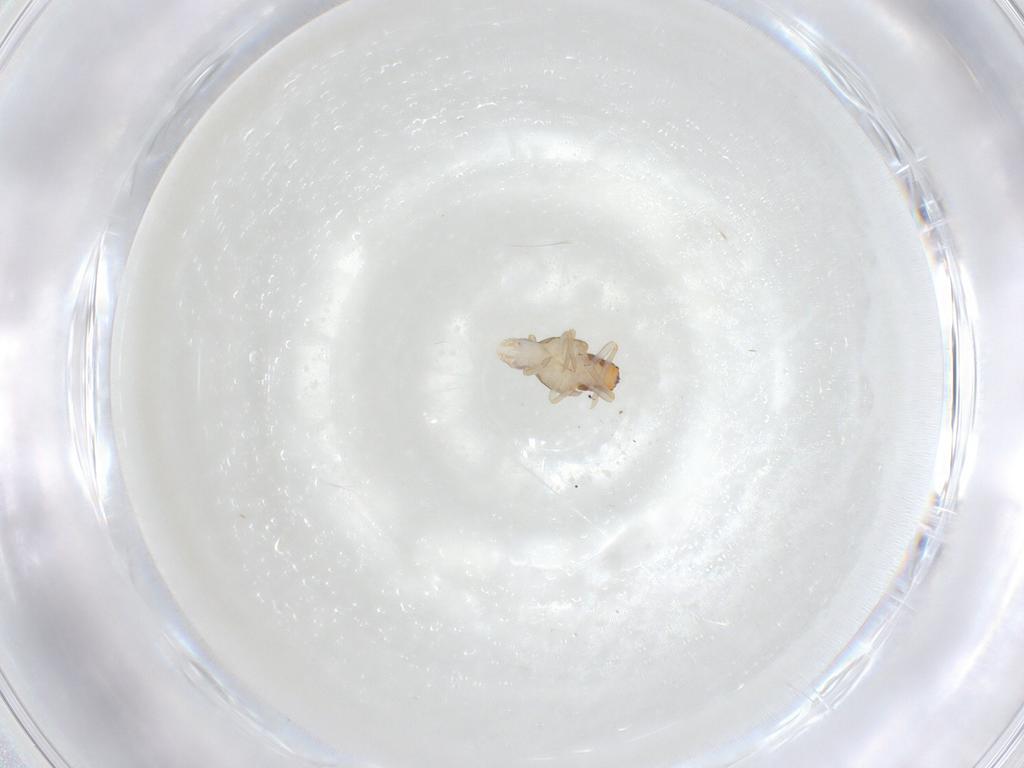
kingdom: Animalia
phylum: Arthropoda
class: Insecta
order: Hemiptera
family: Tropiduchidae
